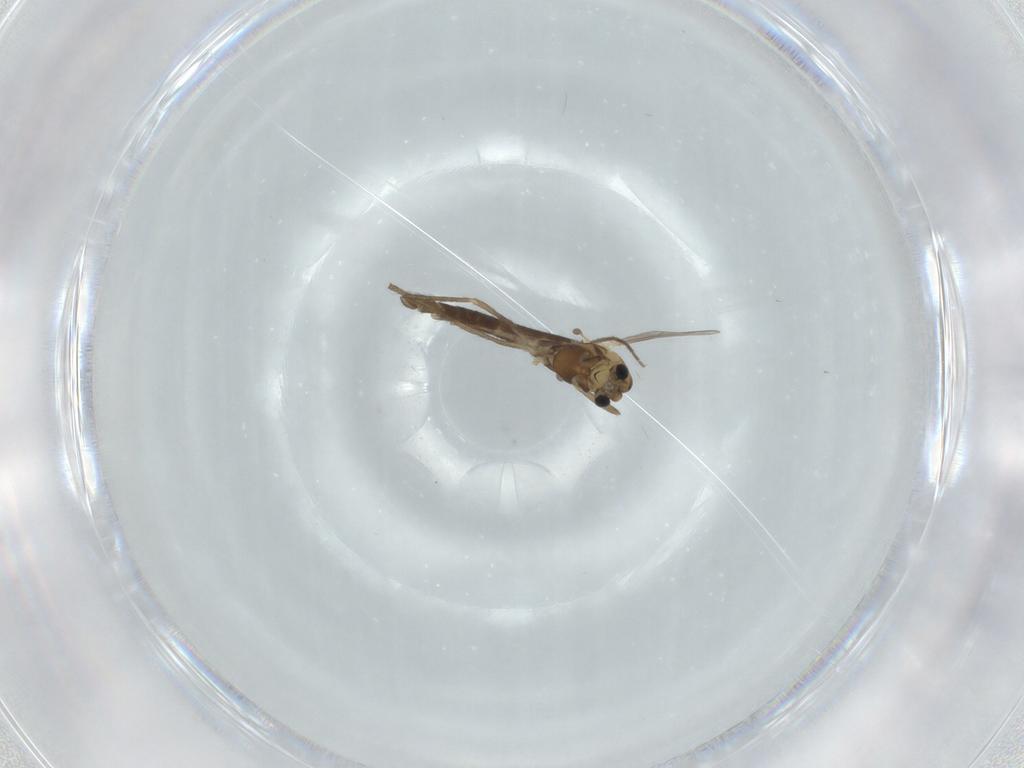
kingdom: Animalia
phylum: Arthropoda
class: Insecta
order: Diptera
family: Chironomidae
